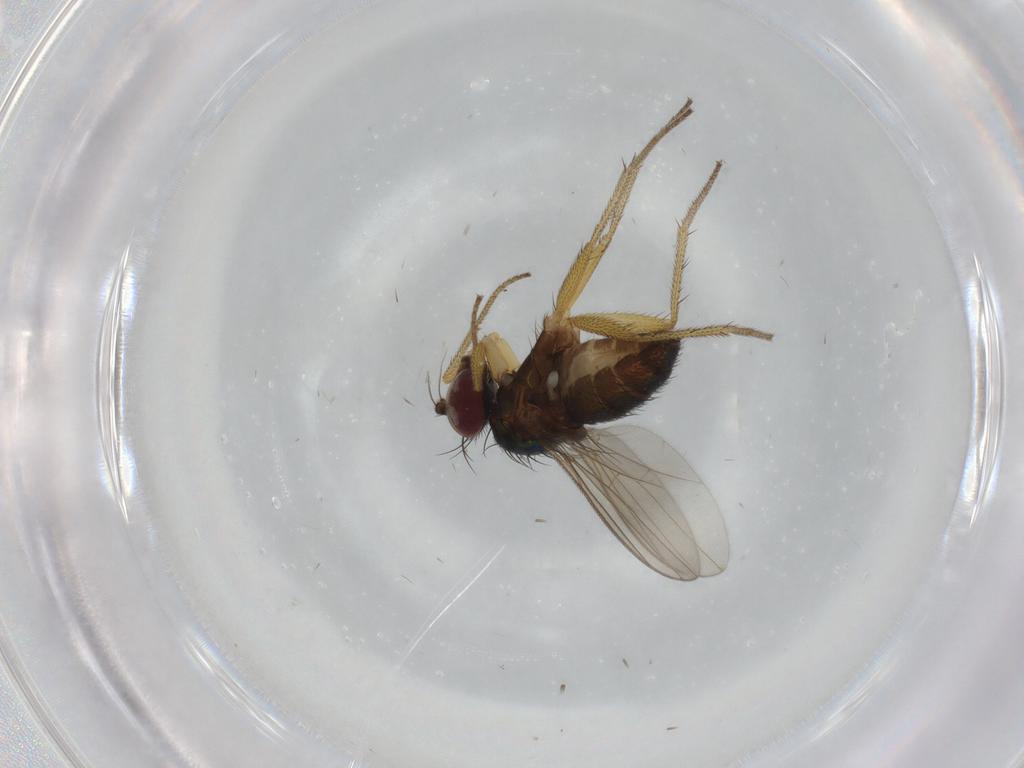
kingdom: Animalia
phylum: Arthropoda
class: Insecta
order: Diptera
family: Dolichopodidae
